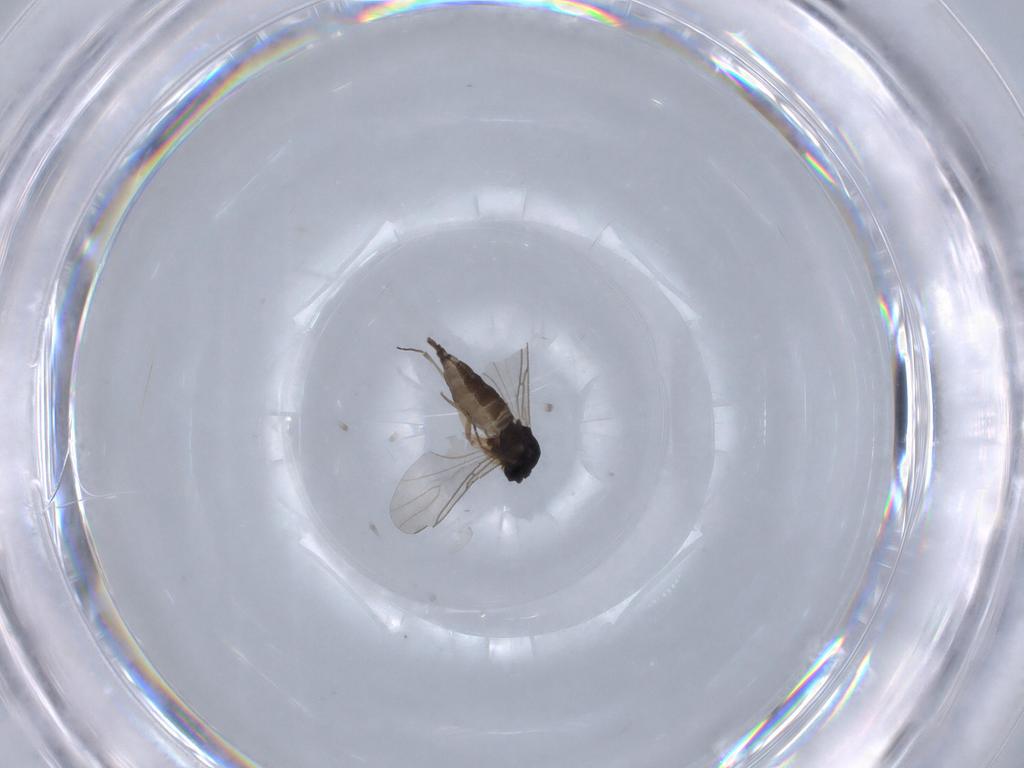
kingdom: Animalia
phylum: Arthropoda
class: Insecta
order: Diptera
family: Sciaridae
